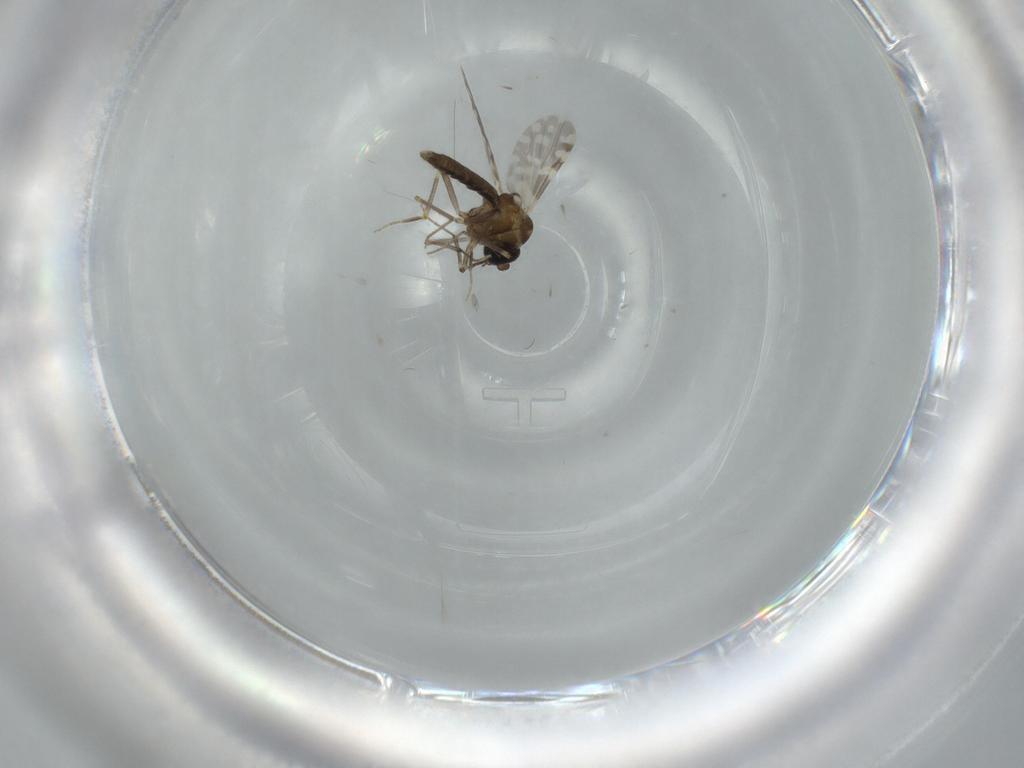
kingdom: Animalia
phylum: Arthropoda
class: Insecta
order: Diptera
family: Ceratopogonidae
